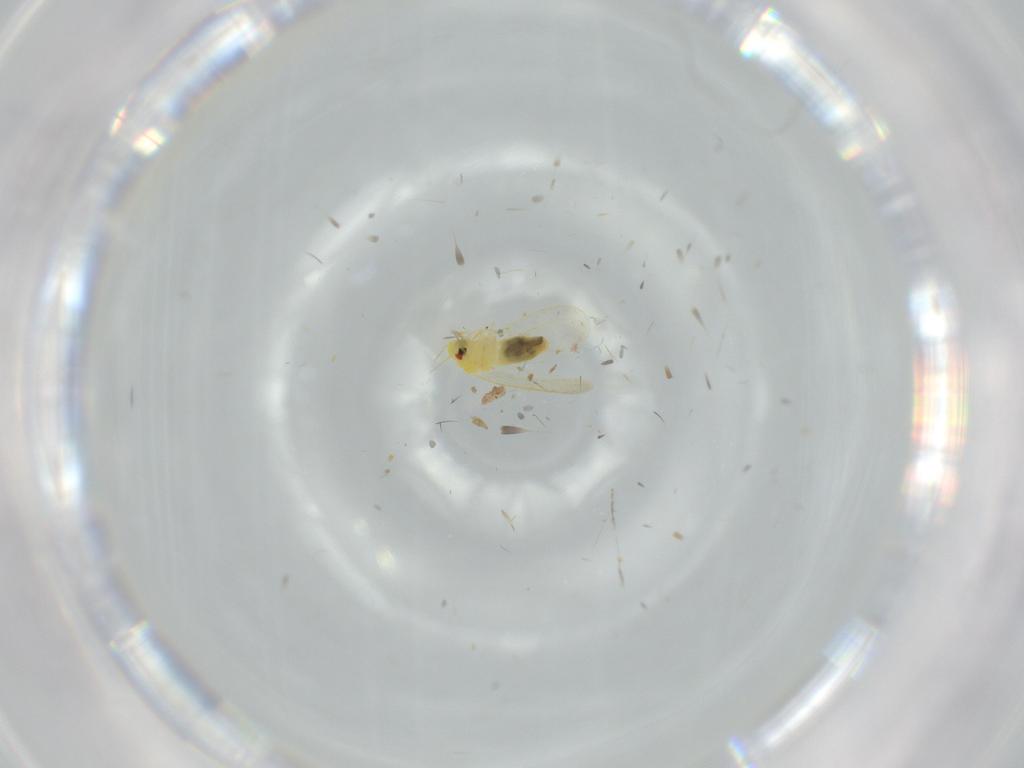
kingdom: Animalia
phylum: Arthropoda
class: Insecta
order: Hemiptera
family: Aleyrodidae
